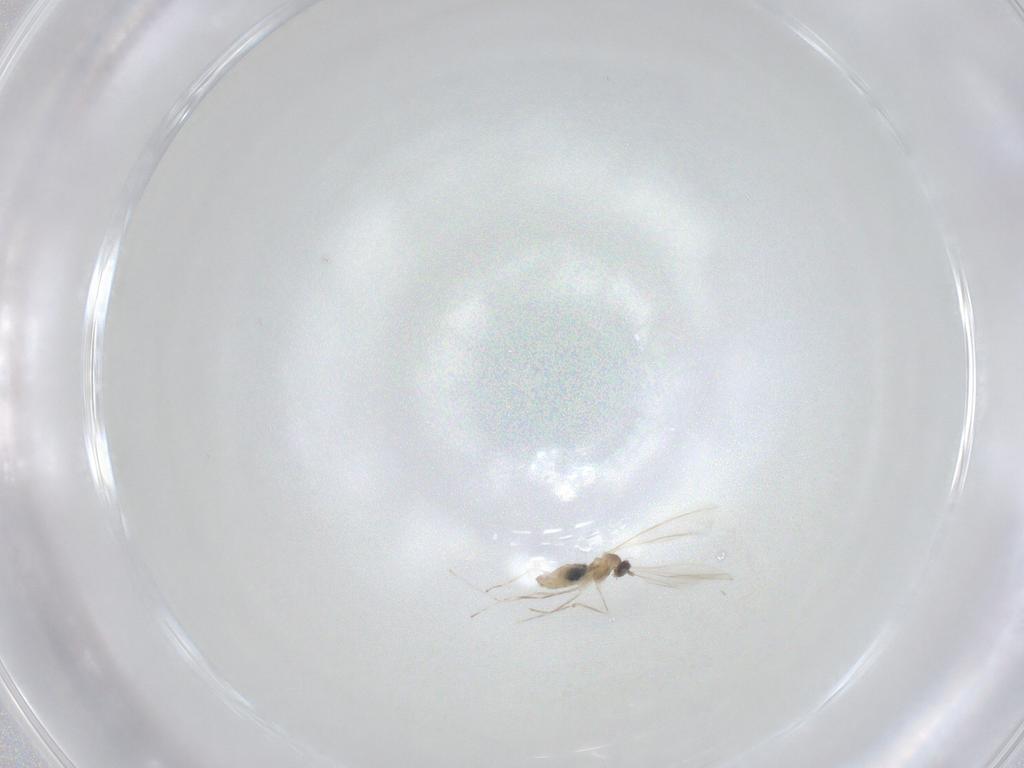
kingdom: Animalia
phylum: Arthropoda
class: Insecta
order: Diptera
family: Cecidomyiidae
